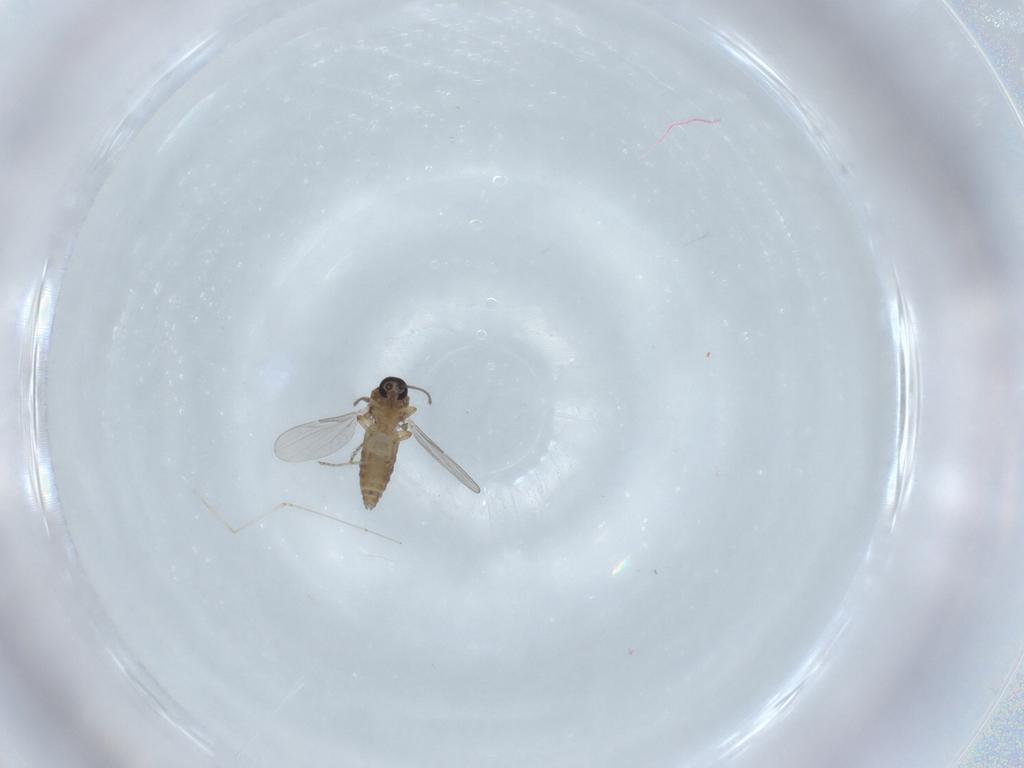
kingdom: Animalia
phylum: Arthropoda
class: Insecta
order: Diptera
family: Ceratopogonidae
